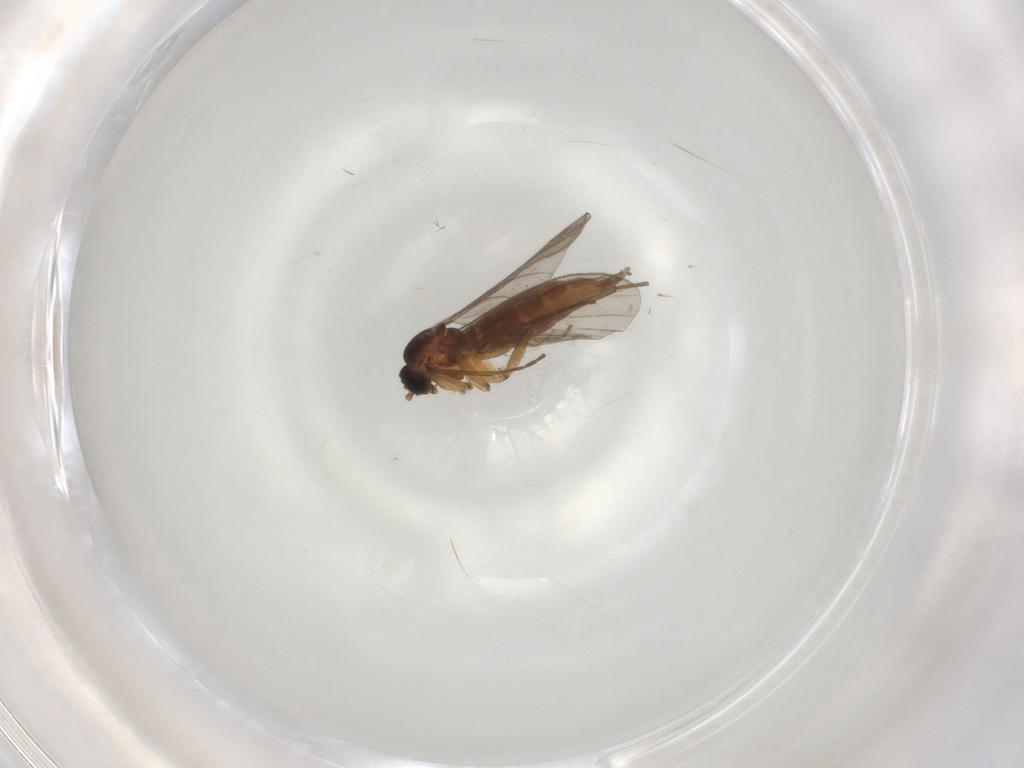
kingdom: Animalia
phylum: Arthropoda
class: Insecta
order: Diptera
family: Sciaridae
